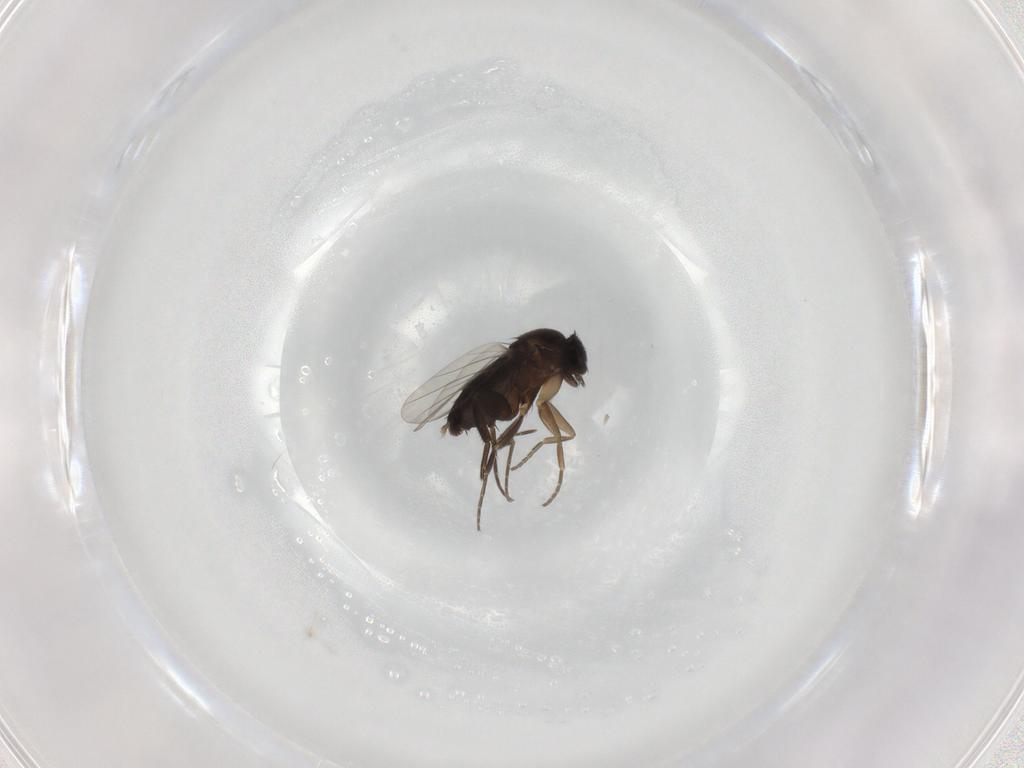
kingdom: Animalia
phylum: Arthropoda
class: Insecta
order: Diptera
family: Phoridae
